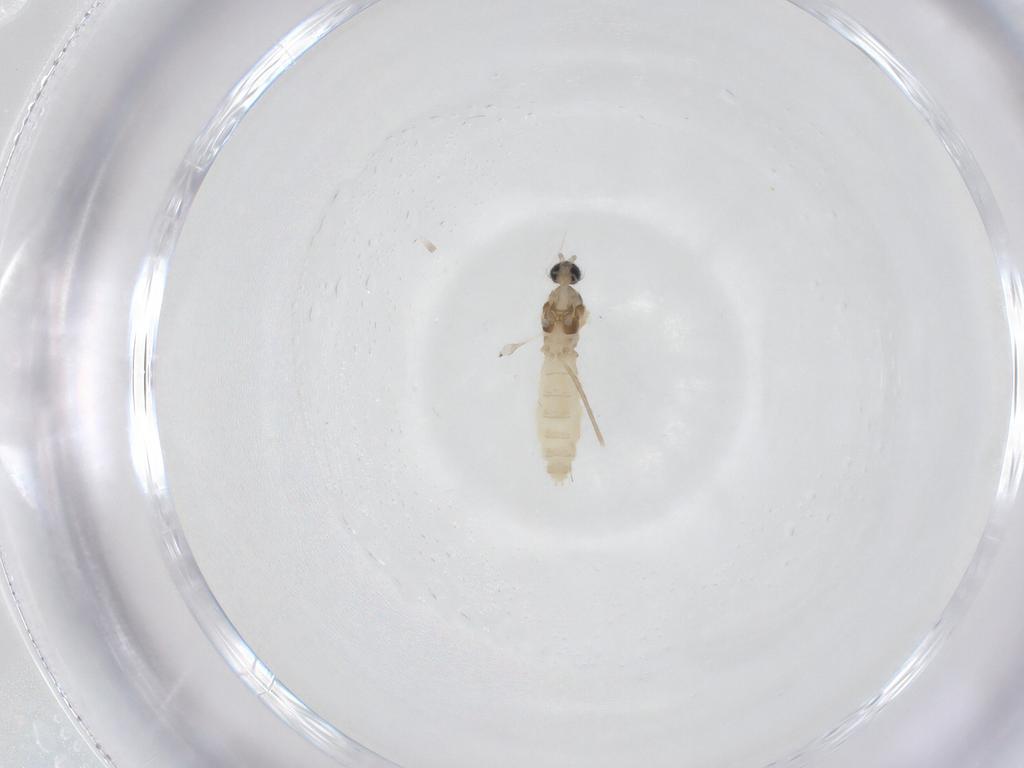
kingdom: Animalia
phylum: Arthropoda
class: Insecta
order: Diptera
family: Cecidomyiidae
